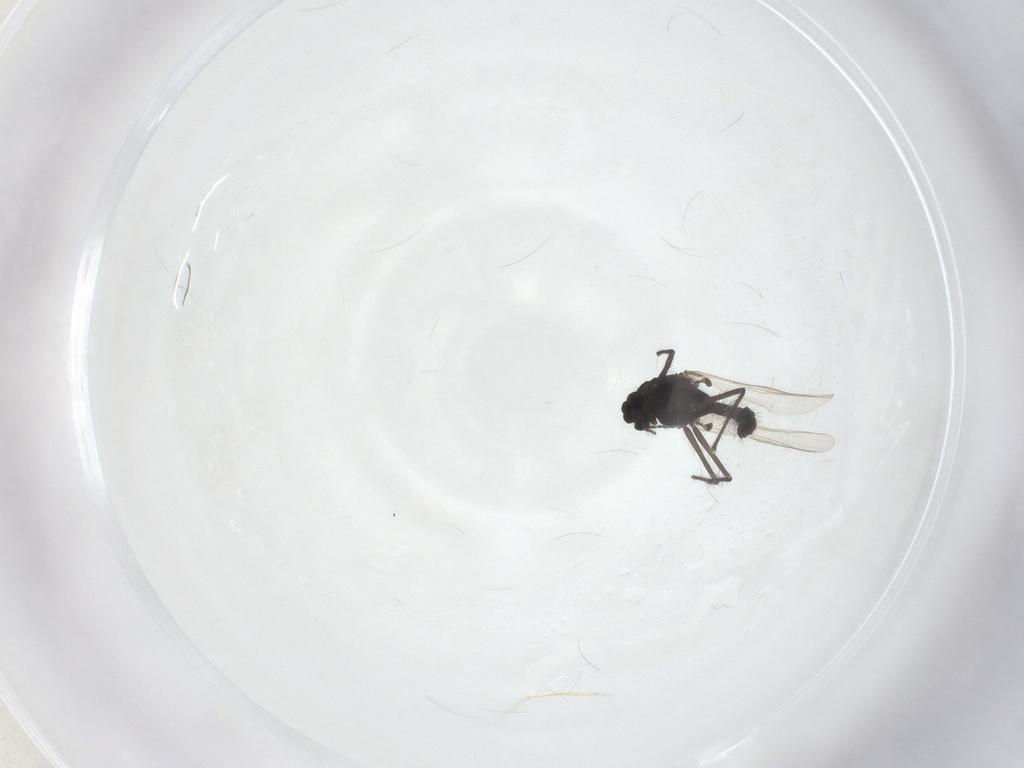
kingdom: Animalia
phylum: Arthropoda
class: Insecta
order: Diptera
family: Chironomidae
